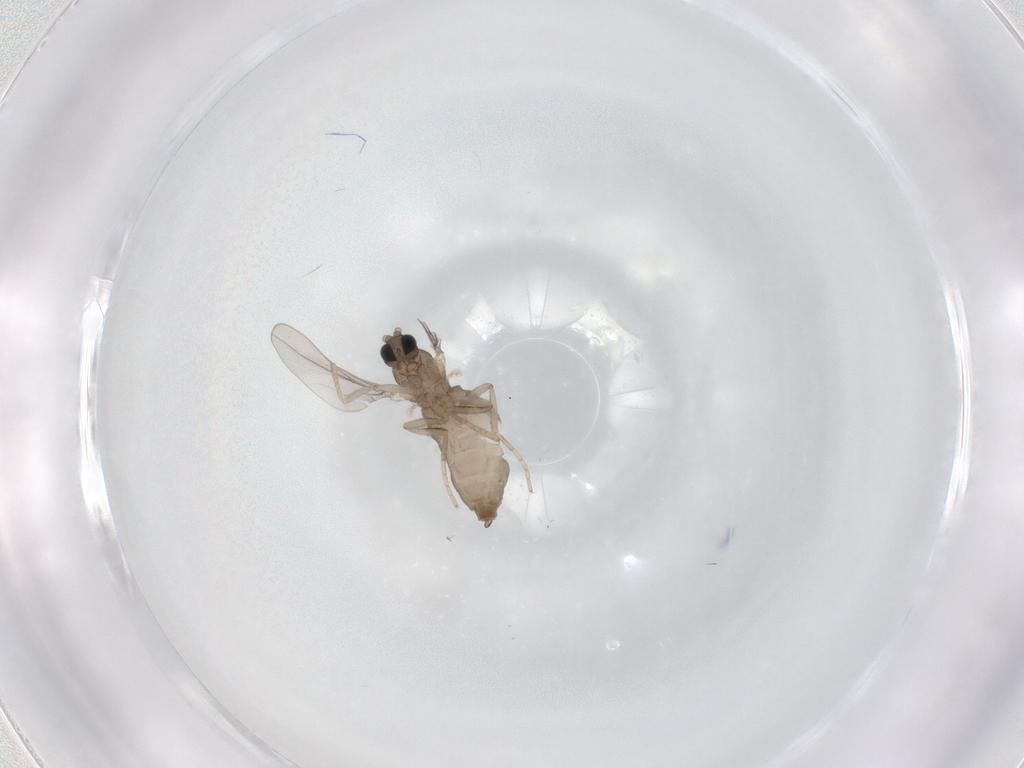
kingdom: Animalia
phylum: Arthropoda
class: Insecta
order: Diptera
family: Cecidomyiidae
